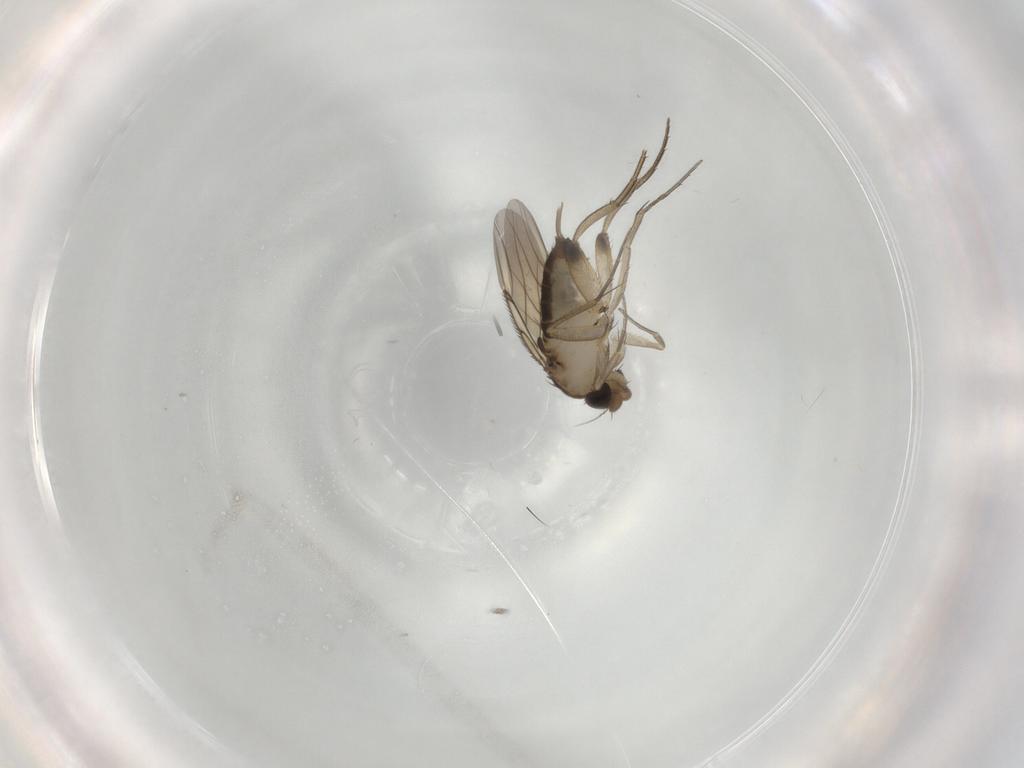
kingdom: Animalia
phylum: Arthropoda
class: Insecta
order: Diptera
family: Phoridae
